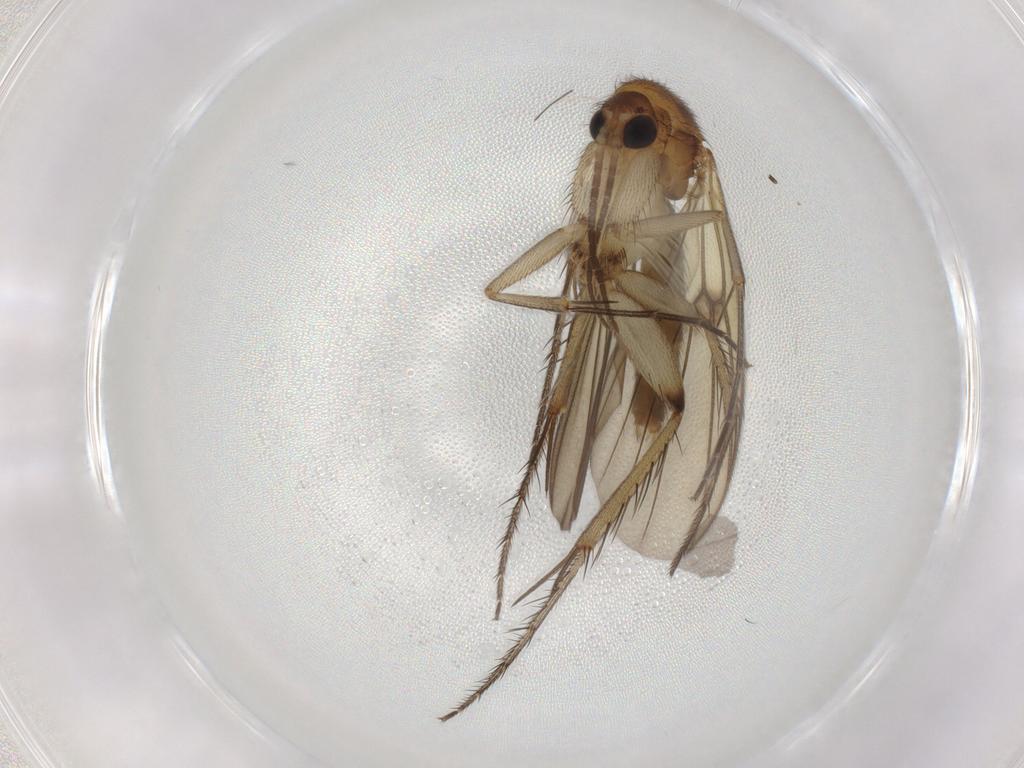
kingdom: Animalia
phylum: Arthropoda
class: Insecta
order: Diptera
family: Mycetophilidae
